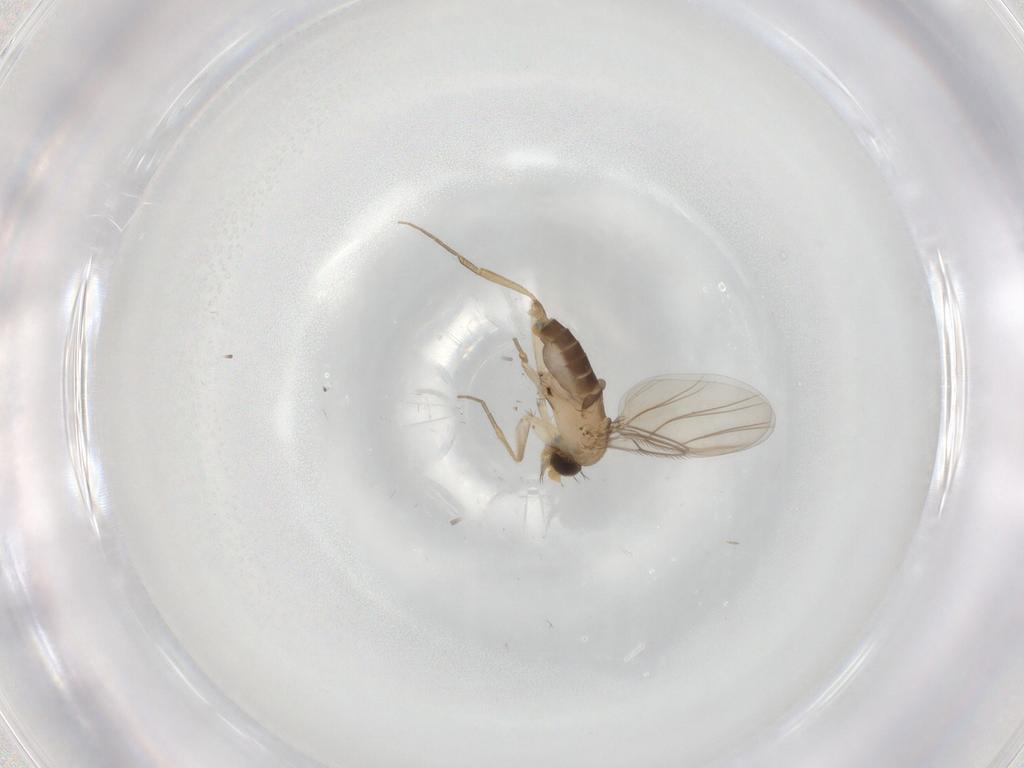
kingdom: Animalia
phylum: Arthropoda
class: Insecta
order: Diptera
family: Phoridae
